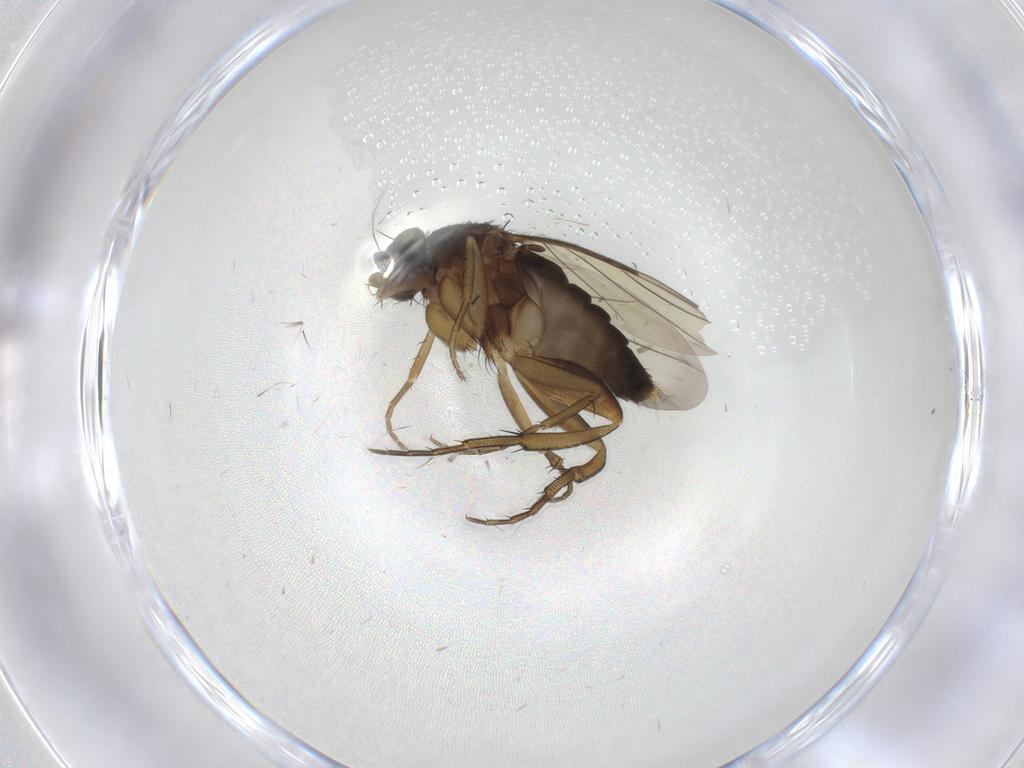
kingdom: Animalia
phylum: Arthropoda
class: Insecta
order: Diptera
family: Phoridae
